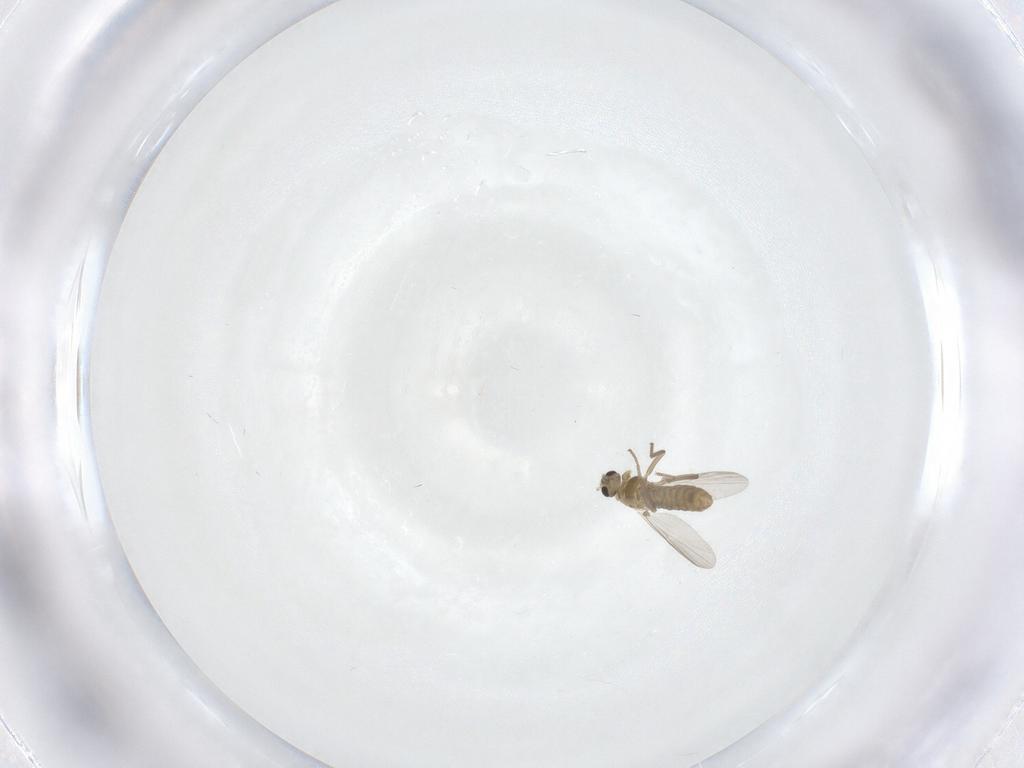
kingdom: Animalia
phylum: Arthropoda
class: Insecta
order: Diptera
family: Chironomidae
